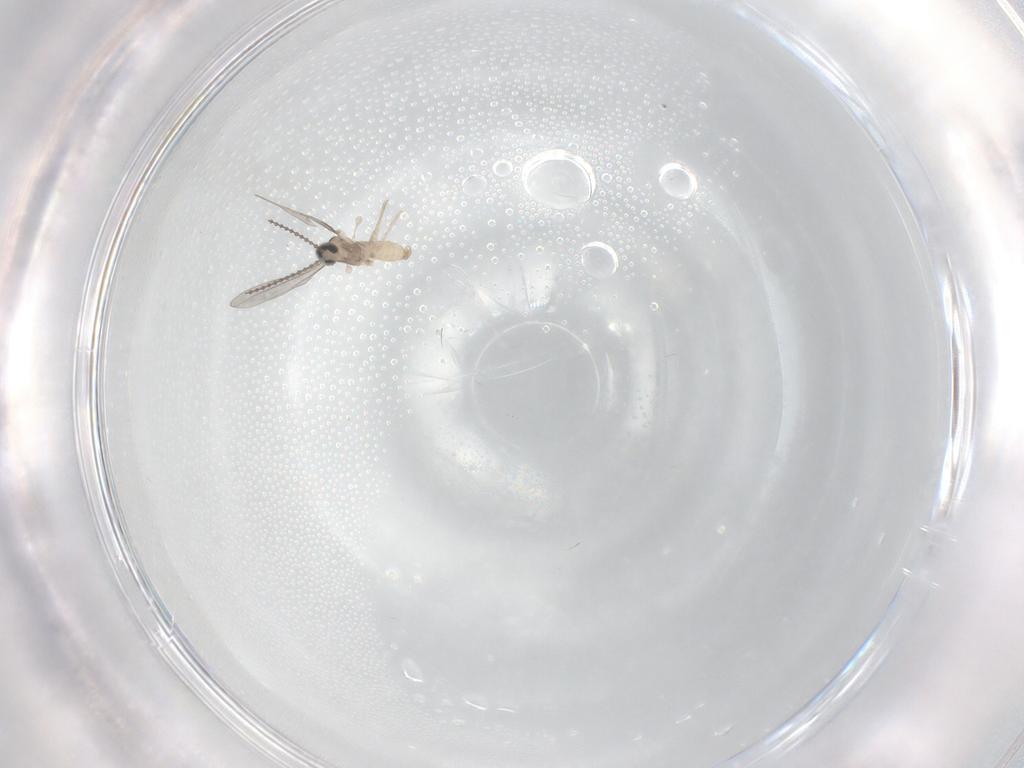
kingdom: Animalia
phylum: Arthropoda
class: Insecta
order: Diptera
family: Cecidomyiidae
